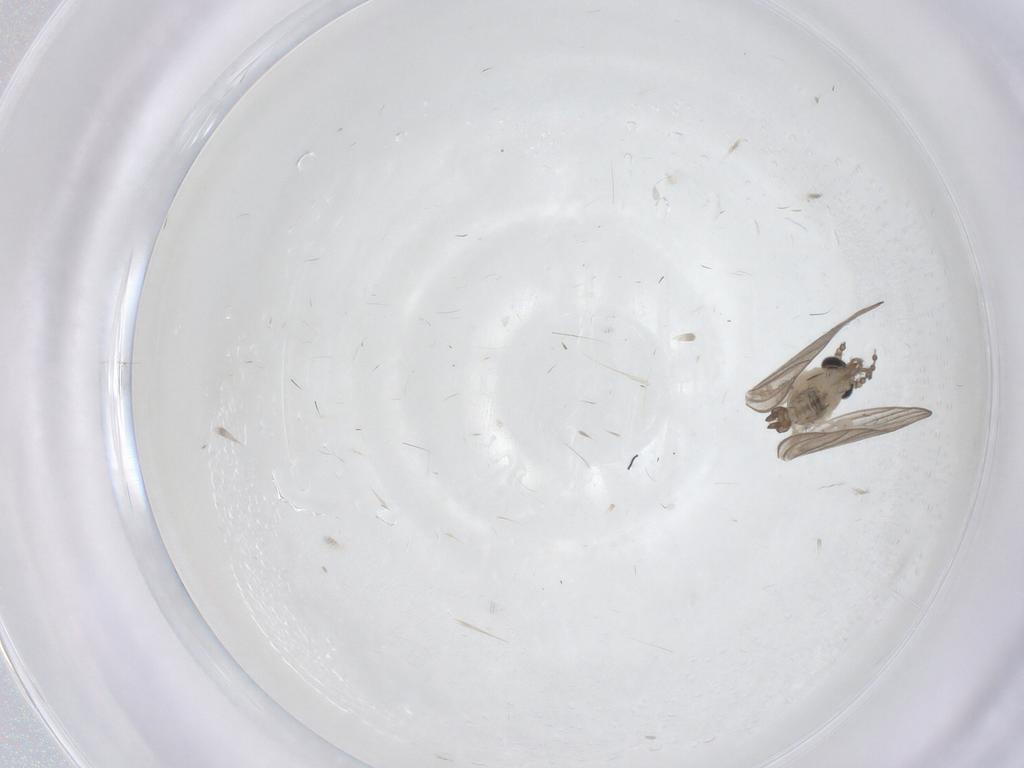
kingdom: Animalia
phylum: Arthropoda
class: Insecta
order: Diptera
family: Psychodidae
